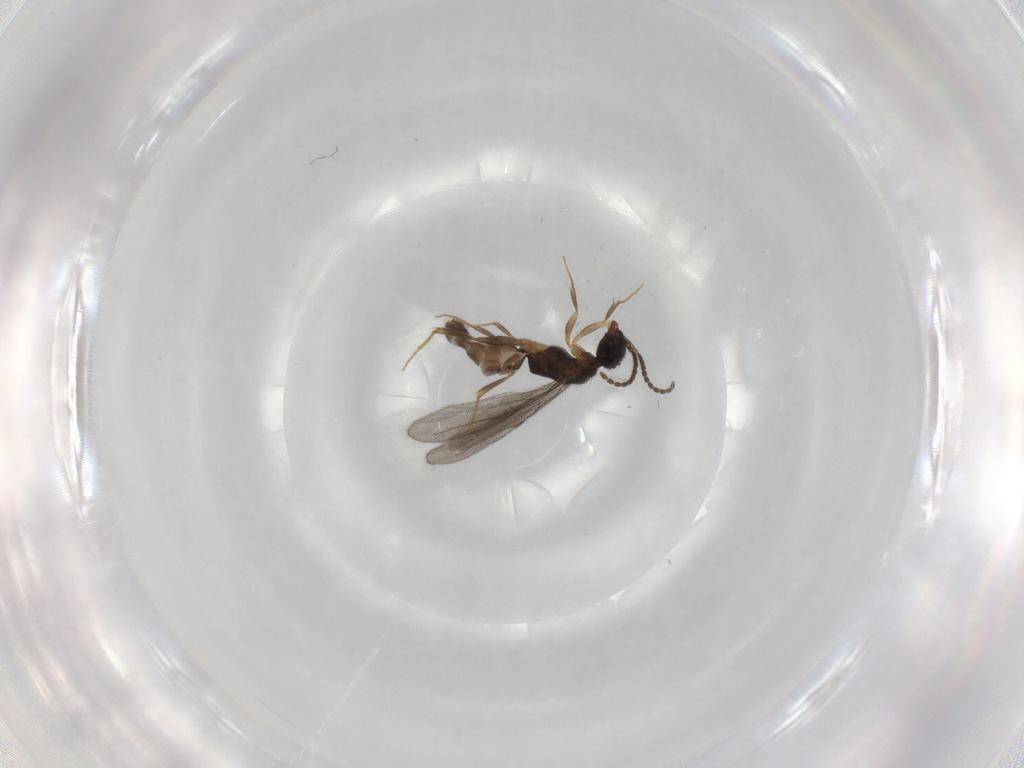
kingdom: Animalia
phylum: Arthropoda
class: Insecta
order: Hymenoptera
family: Bethylidae
